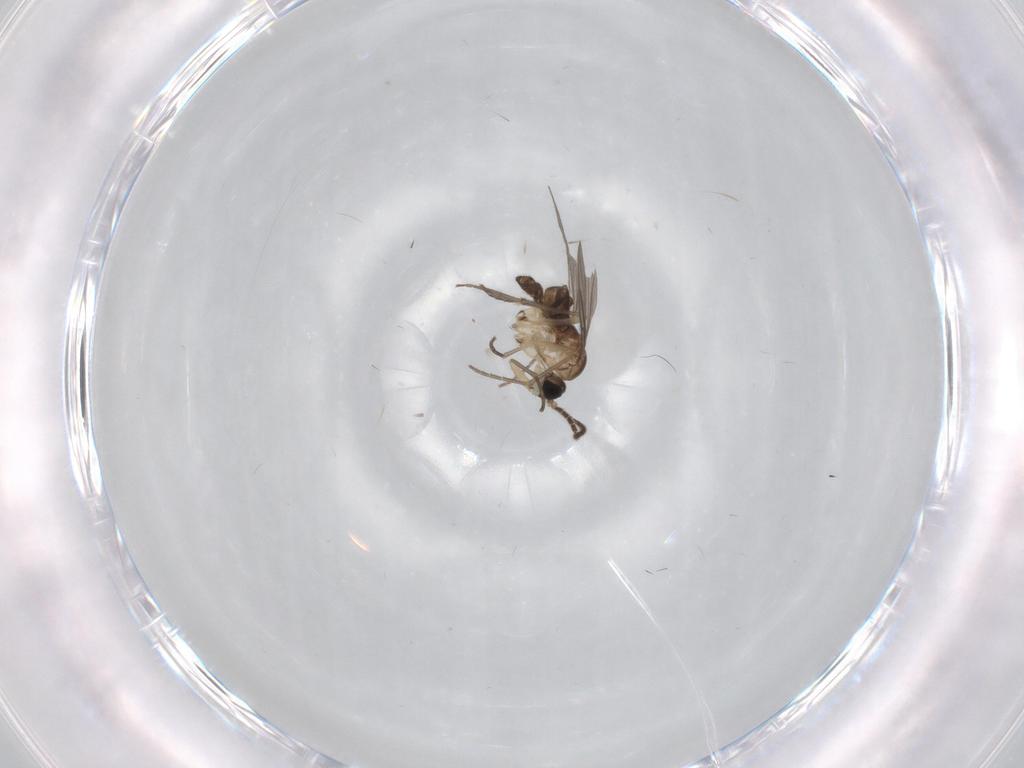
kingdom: Animalia
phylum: Arthropoda
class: Insecta
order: Diptera
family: Sciaridae
